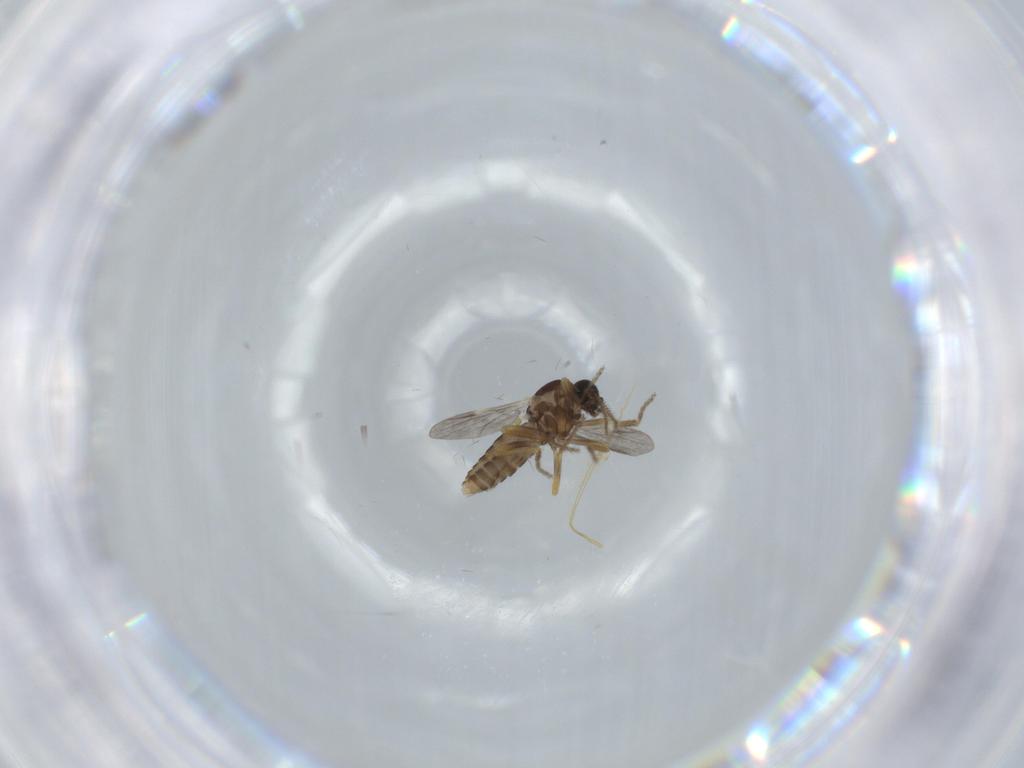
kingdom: Animalia
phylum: Arthropoda
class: Insecta
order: Diptera
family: Ceratopogonidae
